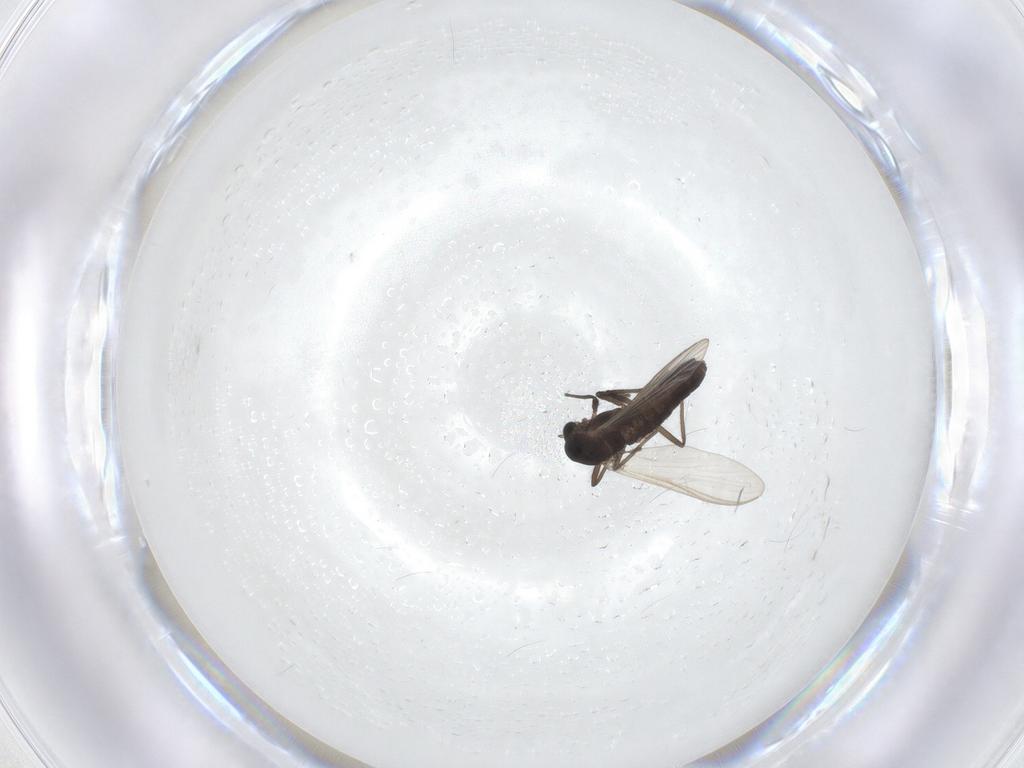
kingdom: Animalia
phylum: Arthropoda
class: Insecta
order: Diptera
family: Chironomidae
